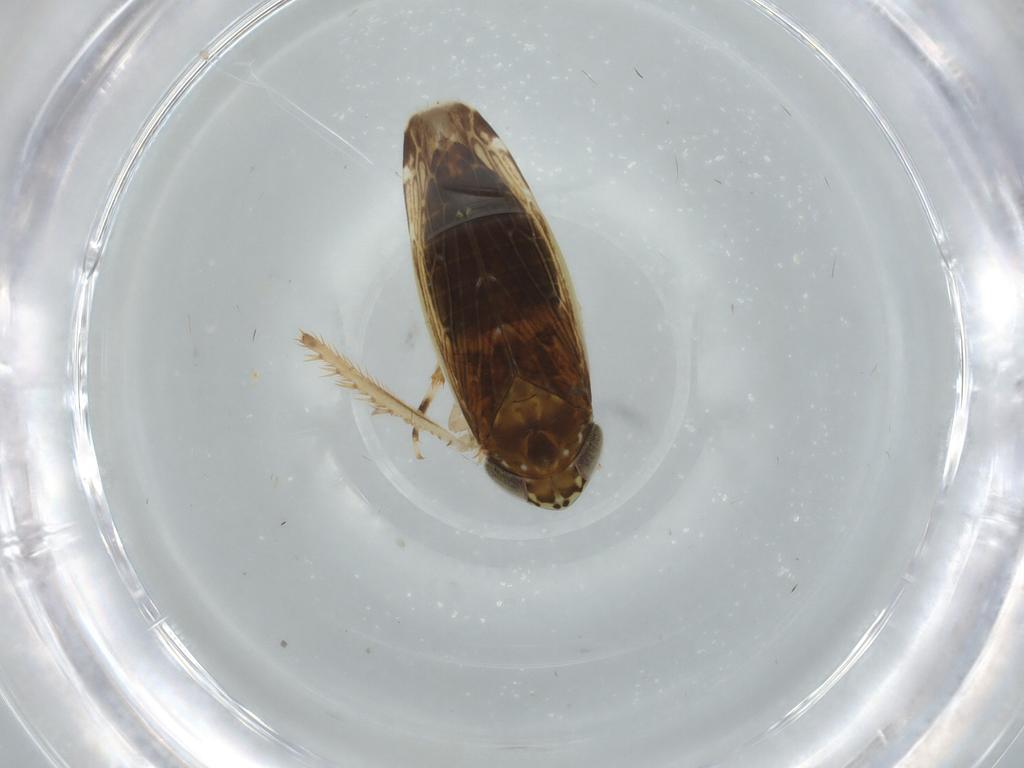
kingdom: Animalia
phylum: Arthropoda
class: Insecta
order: Hemiptera
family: Cicadellidae
